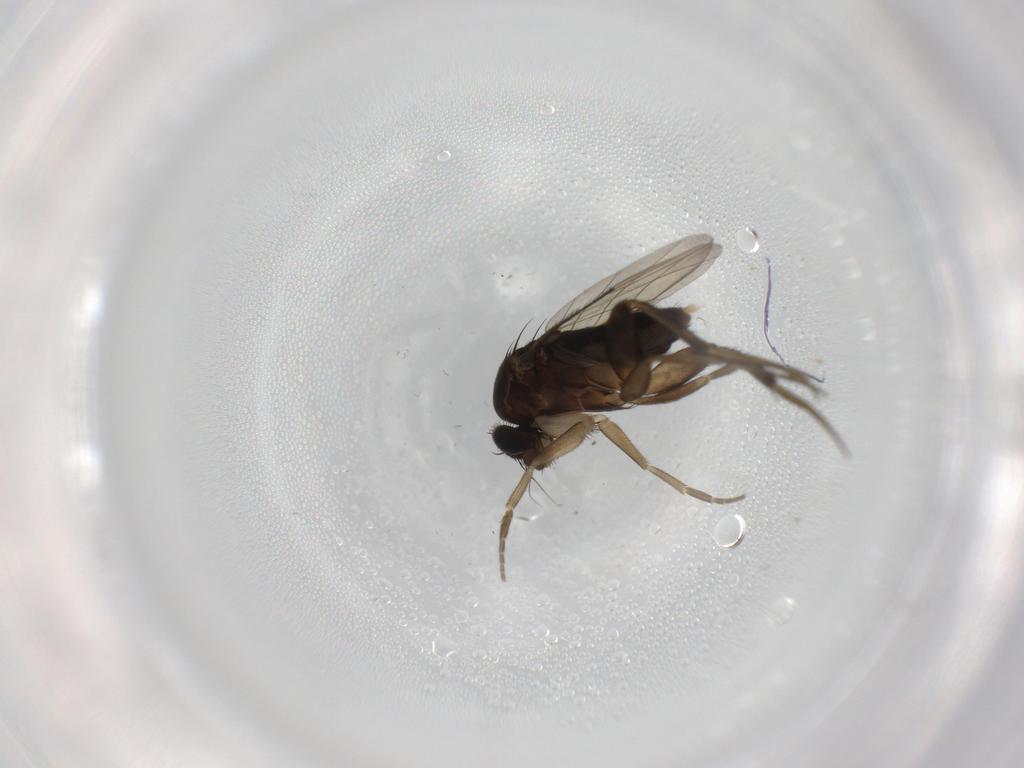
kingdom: Animalia
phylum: Arthropoda
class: Insecta
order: Diptera
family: Phoridae
